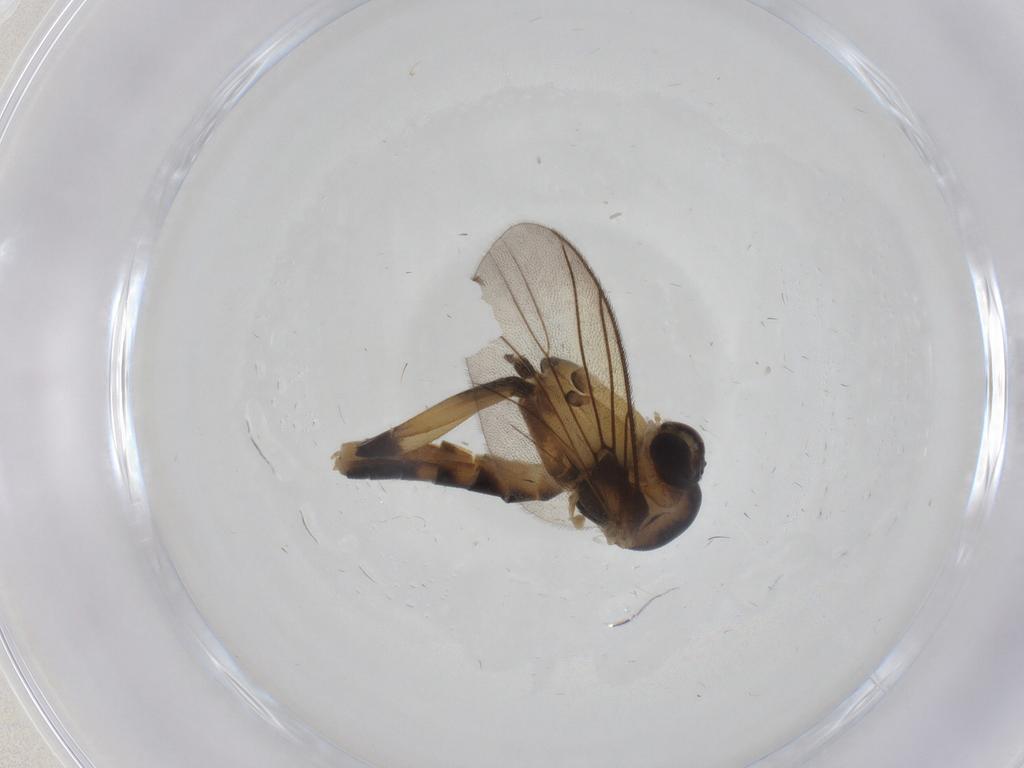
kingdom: Animalia
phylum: Arthropoda
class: Insecta
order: Diptera
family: Mycetophilidae
